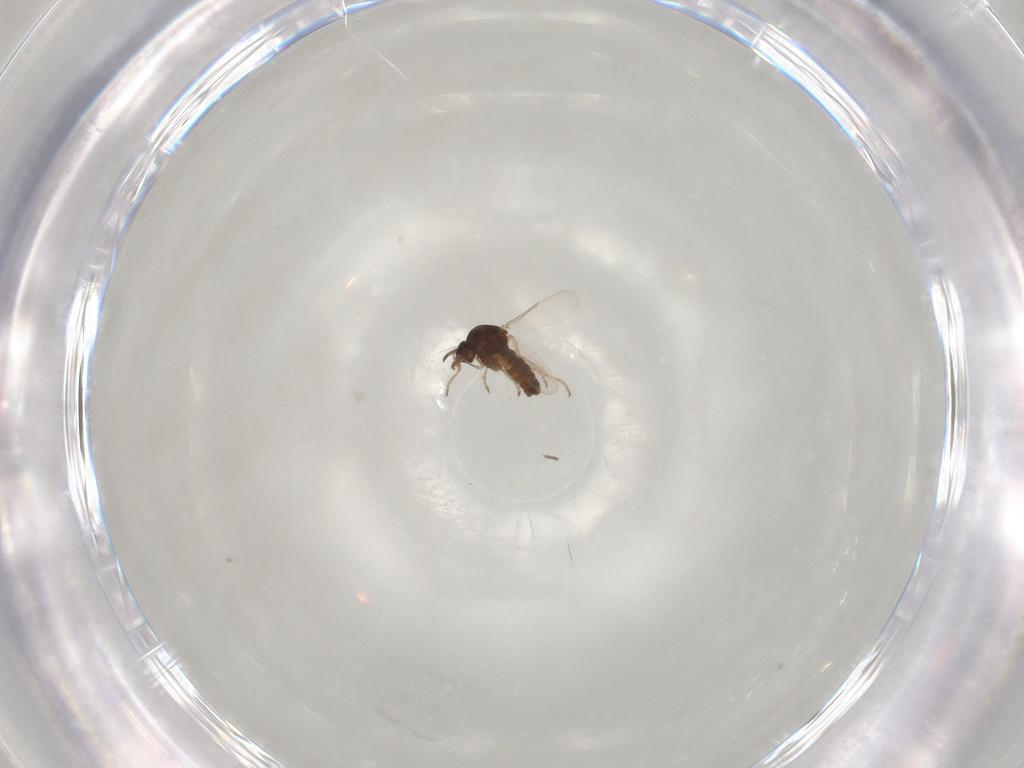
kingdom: Animalia
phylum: Arthropoda
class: Insecta
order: Diptera
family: Ceratopogonidae
